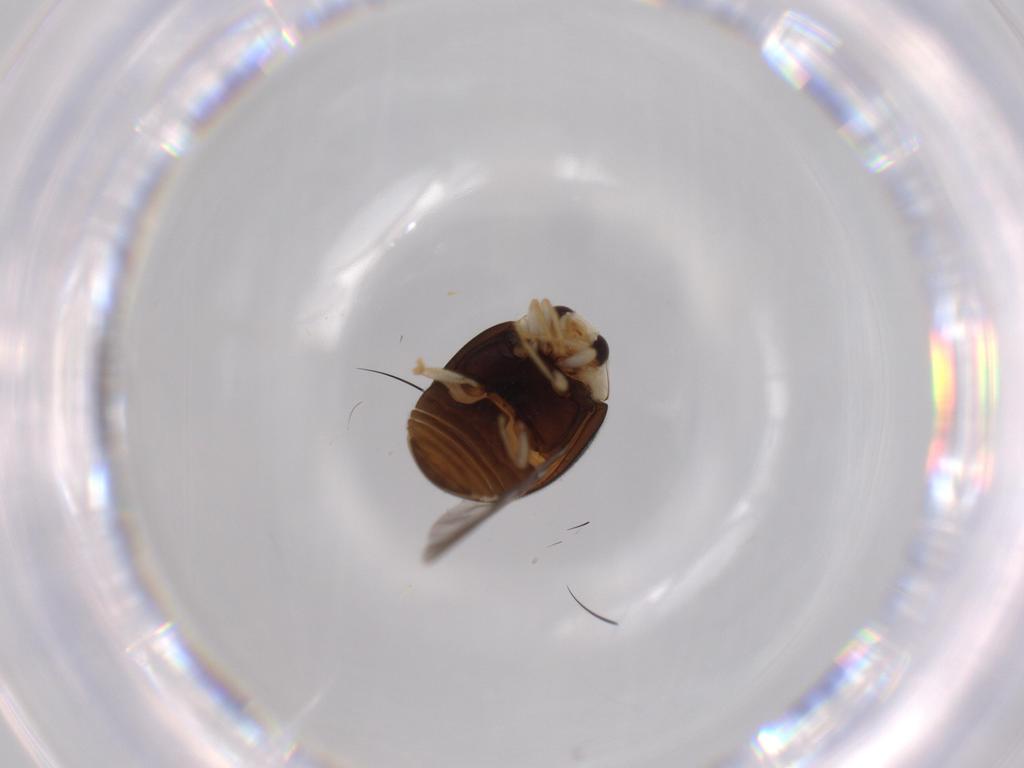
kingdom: Animalia
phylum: Arthropoda
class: Insecta
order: Coleoptera
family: Coccinellidae
